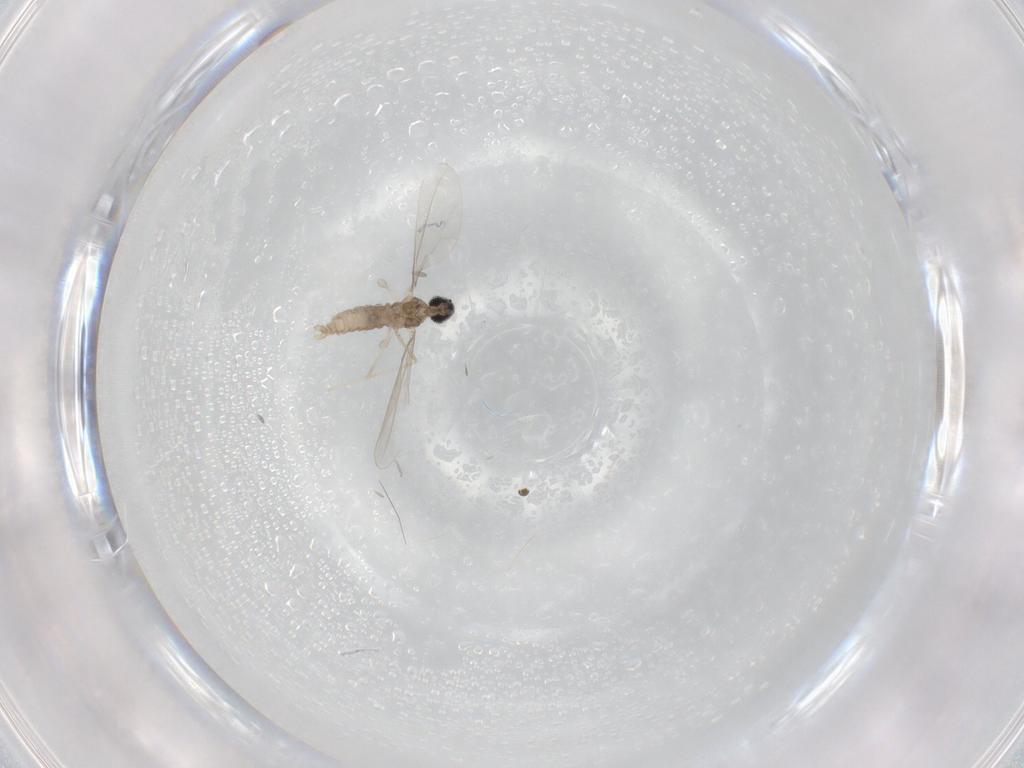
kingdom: Animalia
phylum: Arthropoda
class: Insecta
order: Diptera
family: Cecidomyiidae
